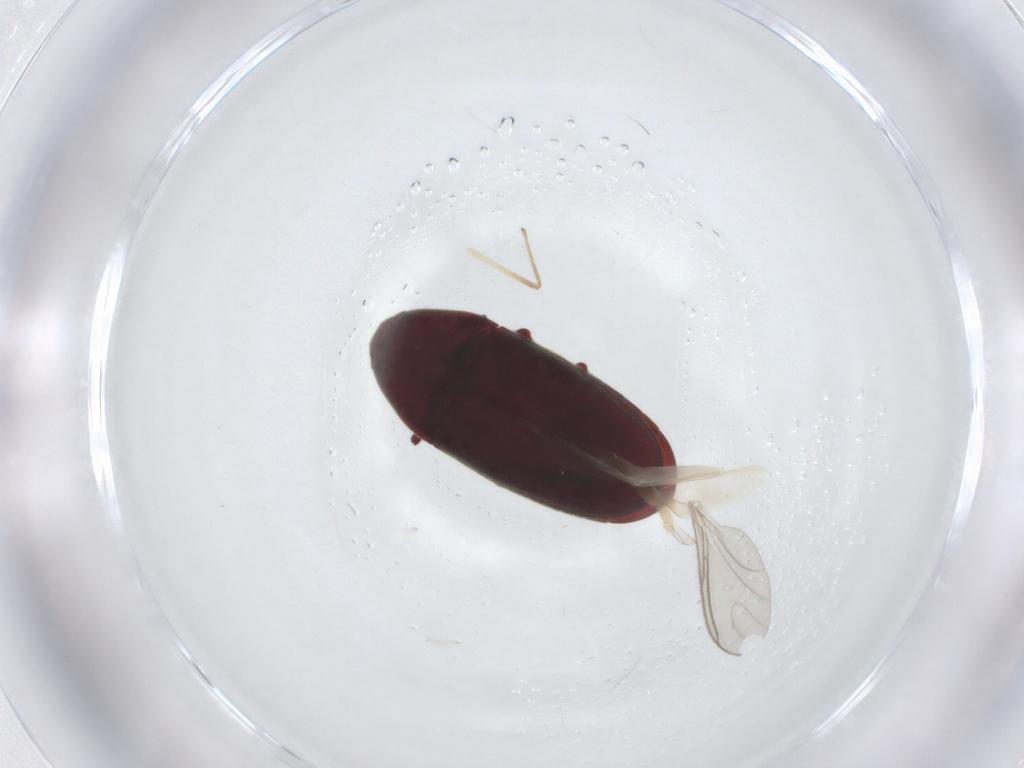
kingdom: Animalia
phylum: Arthropoda
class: Insecta
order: Coleoptera
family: Throscidae
